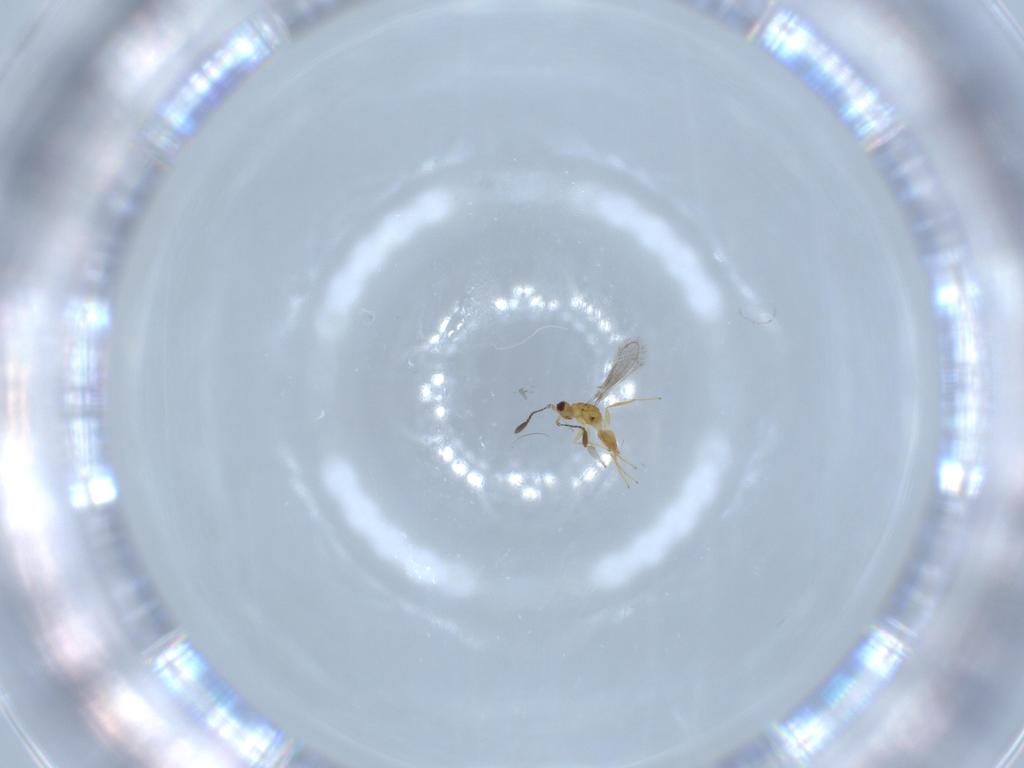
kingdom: Animalia
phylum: Arthropoda
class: Insecta
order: Hymenoptera
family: Mymaridae
